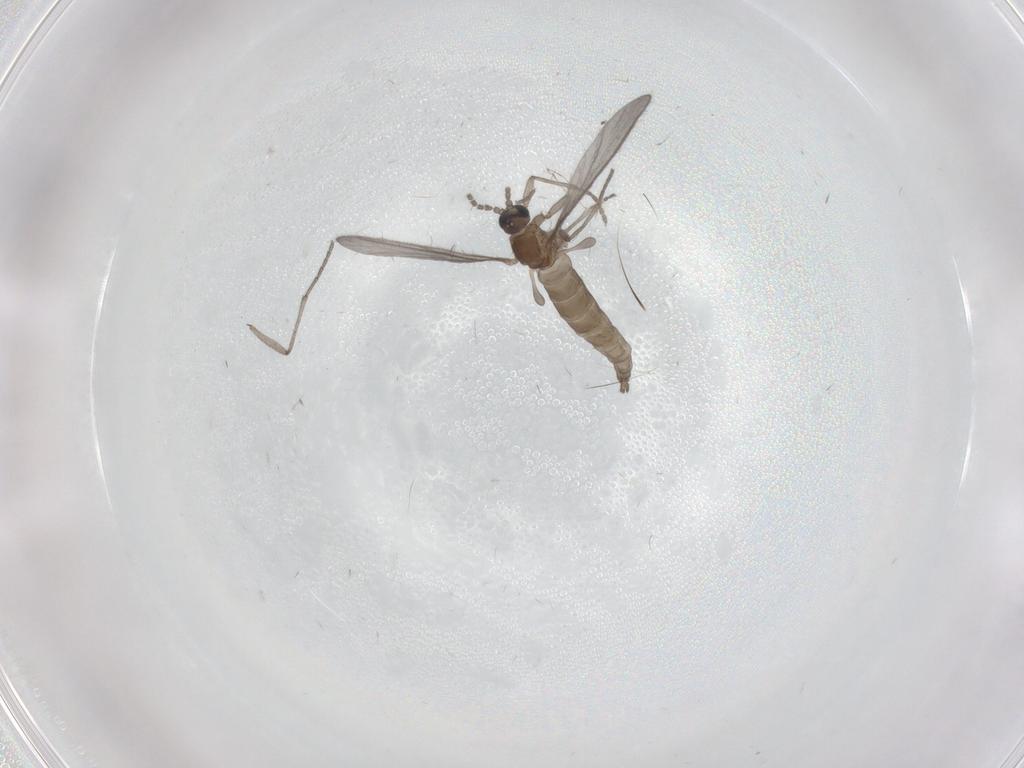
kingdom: Animalia
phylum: Arthropoda
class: Insecta
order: Diptera
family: Sciaridae
